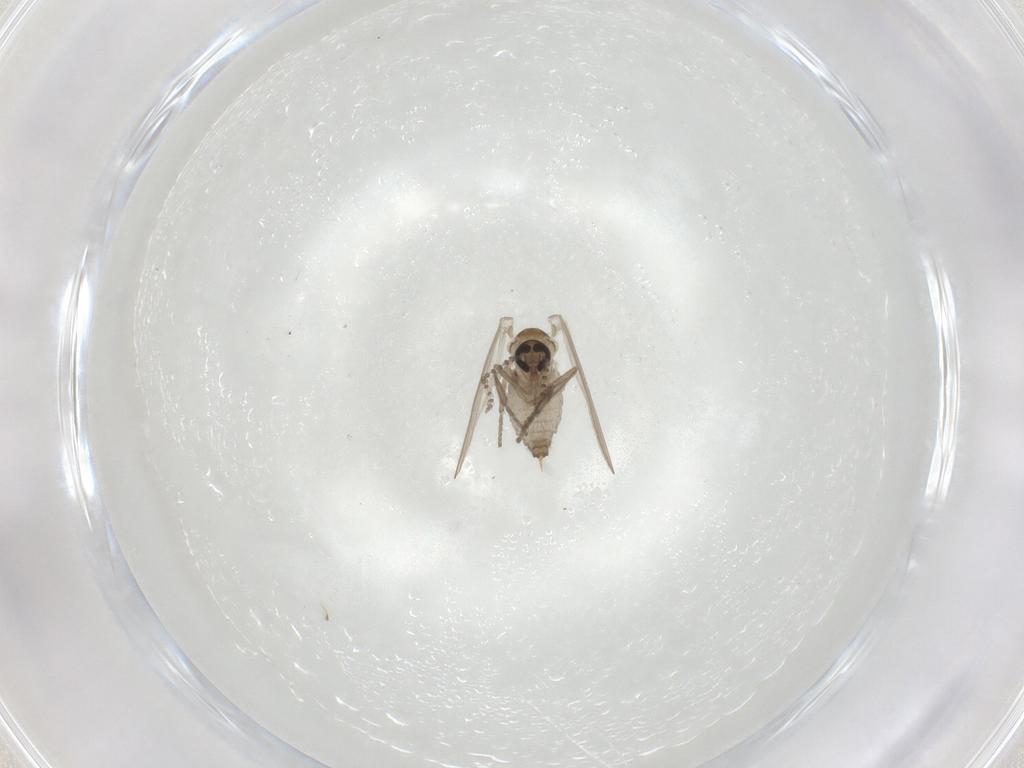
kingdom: Animalia
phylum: Arthropoda
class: Insecta
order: Diptera
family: Psychodidae
